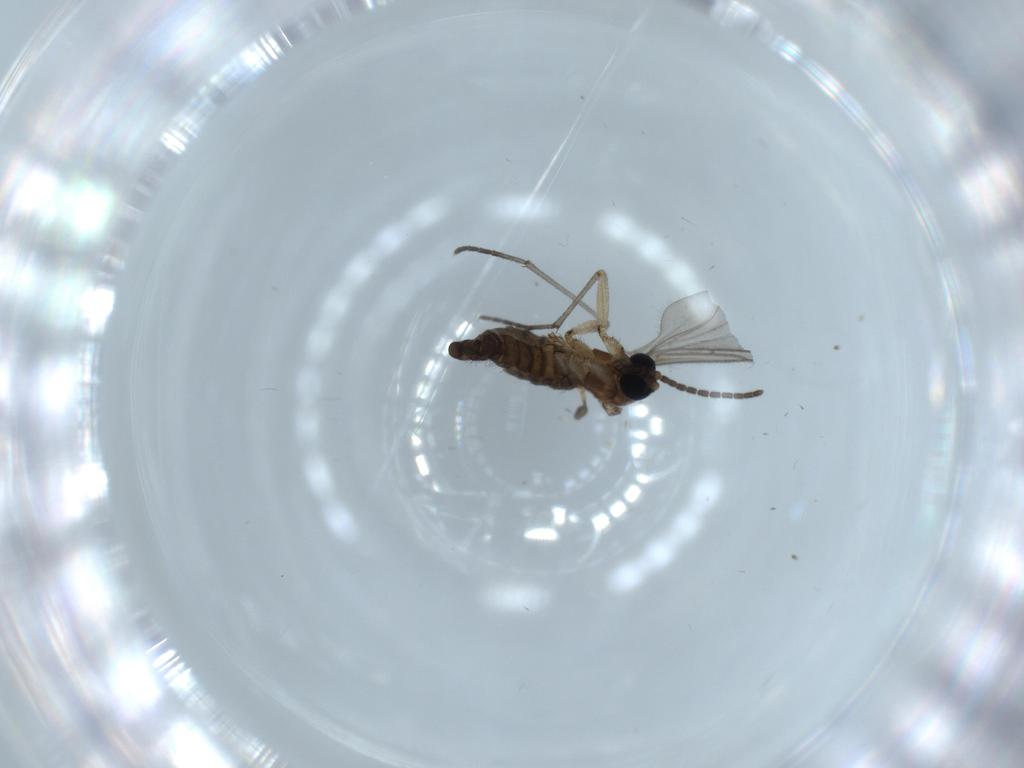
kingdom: Animalia
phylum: Arthropoda
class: Insecta
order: Diptera
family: Sciaridae
